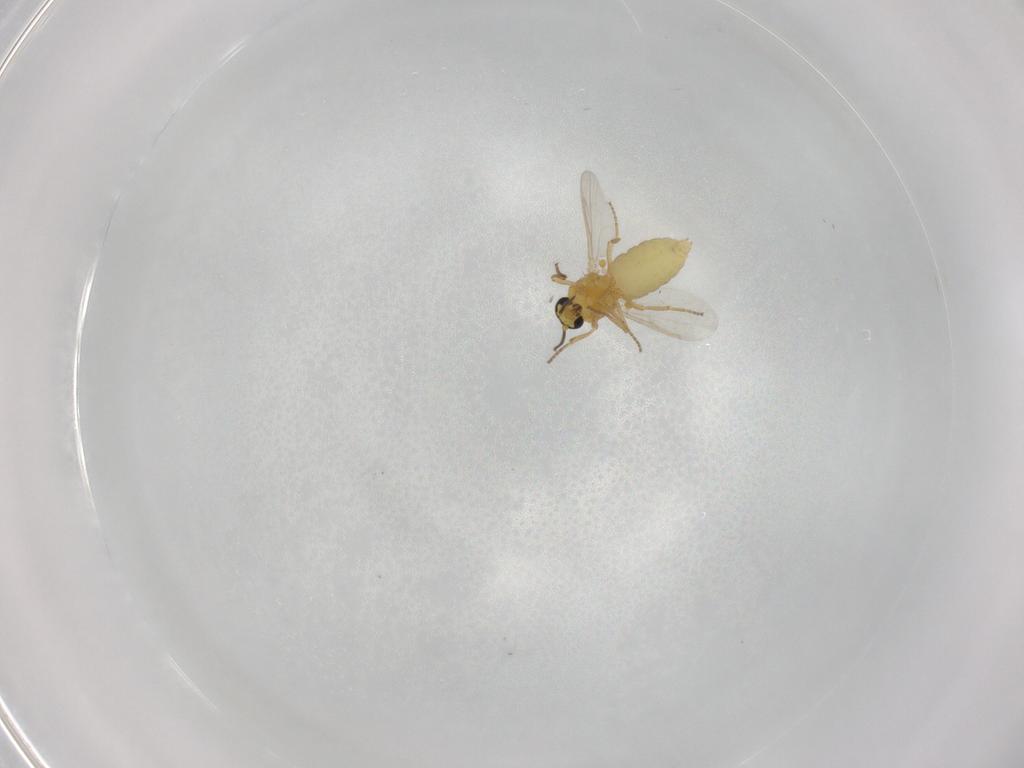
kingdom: Animalia
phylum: Arthropoda
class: Insecta
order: Diptera
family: Ceratopogonidae
